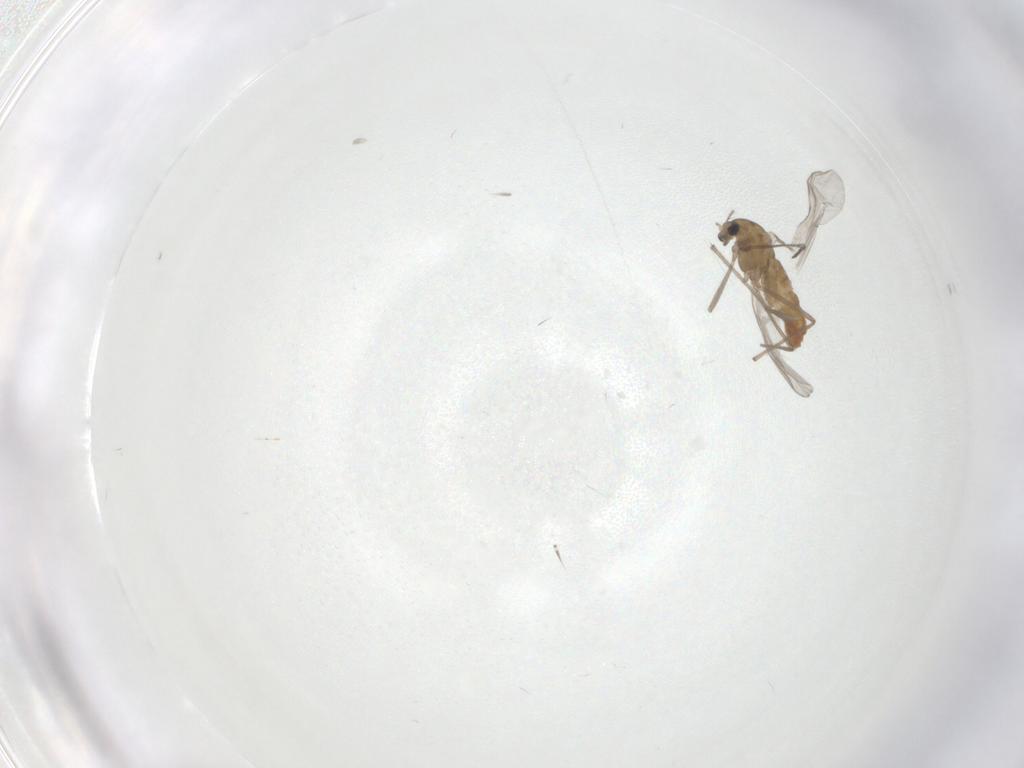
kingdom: Animalia
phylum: Arthropoda
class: Insecta
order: Diptera
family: Chironomidae
